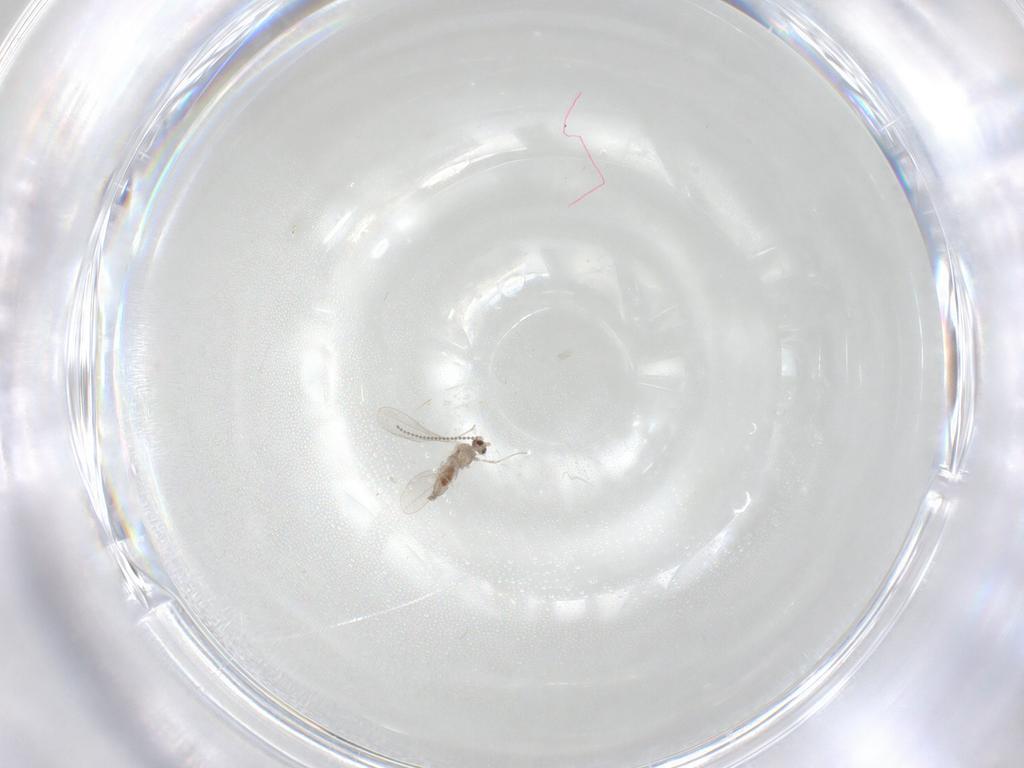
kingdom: Animalia
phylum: Arthropoda
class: Insecta
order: Diptera
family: Cecidomyiidae
